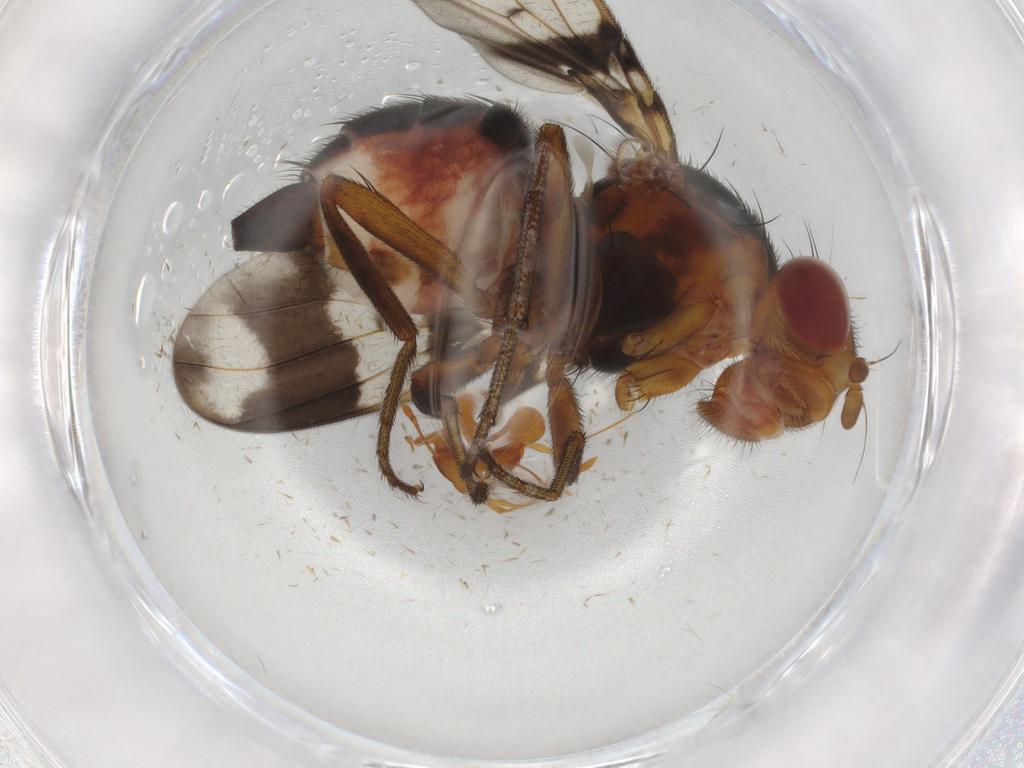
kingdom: Animalia
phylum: Arthropoda
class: Insecta
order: Diptera
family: Richardiidae
